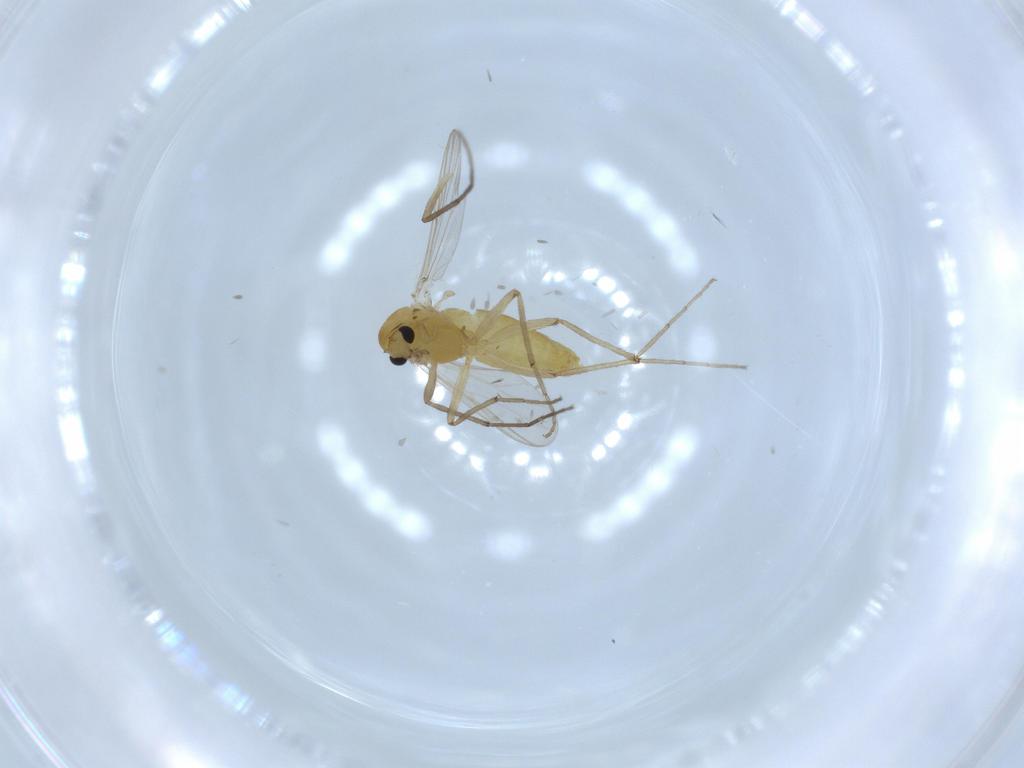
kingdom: Animalia
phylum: Arthropoda
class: Insecta
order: Diptera
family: Chironomidae
